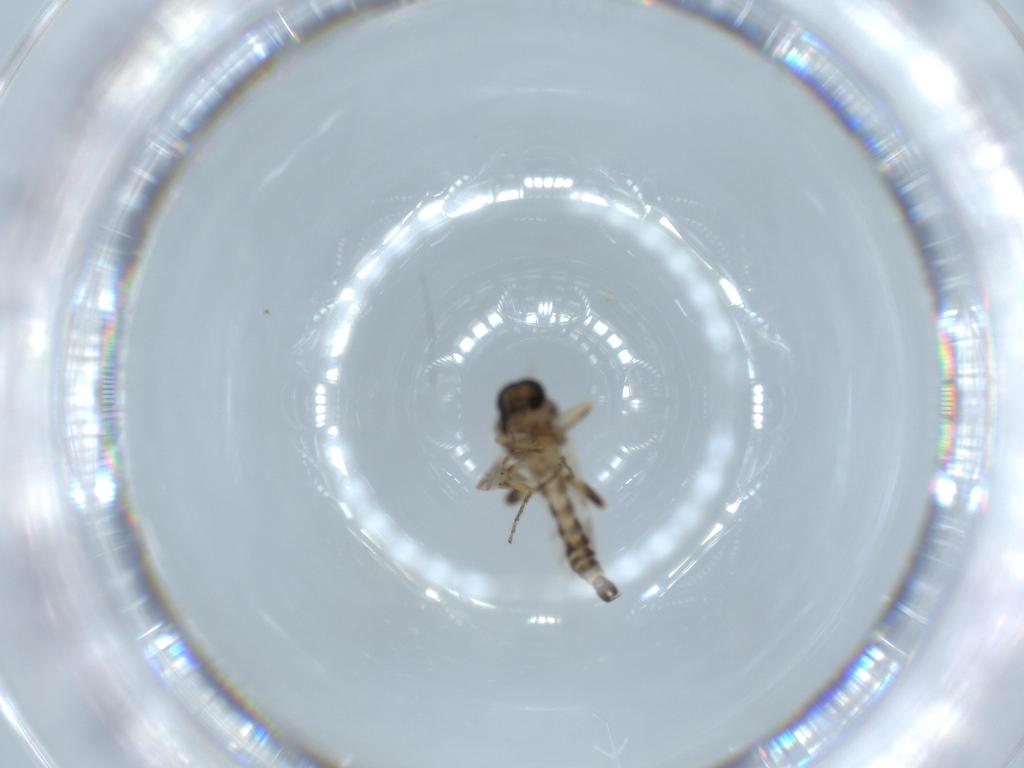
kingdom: Animalia
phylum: Arthropoda
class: Insecta
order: Diptera
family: Ceratopogonidae
